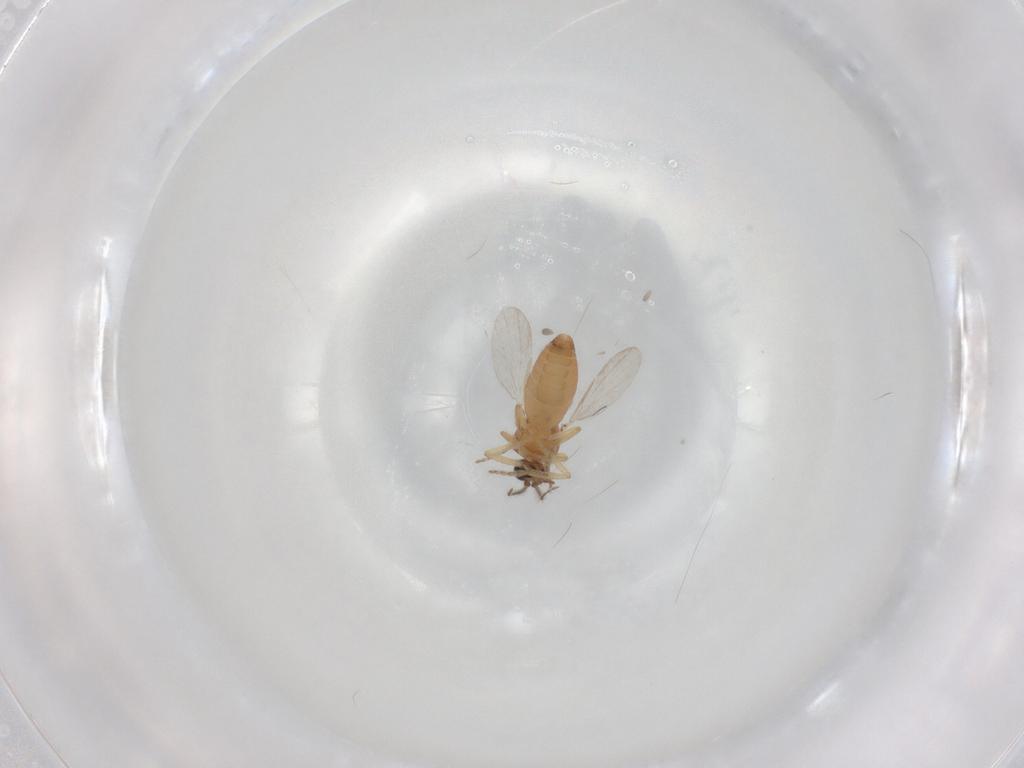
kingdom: Animalia
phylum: Arthropoda
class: Insecta
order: Diptera
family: Ceratopogonidae
